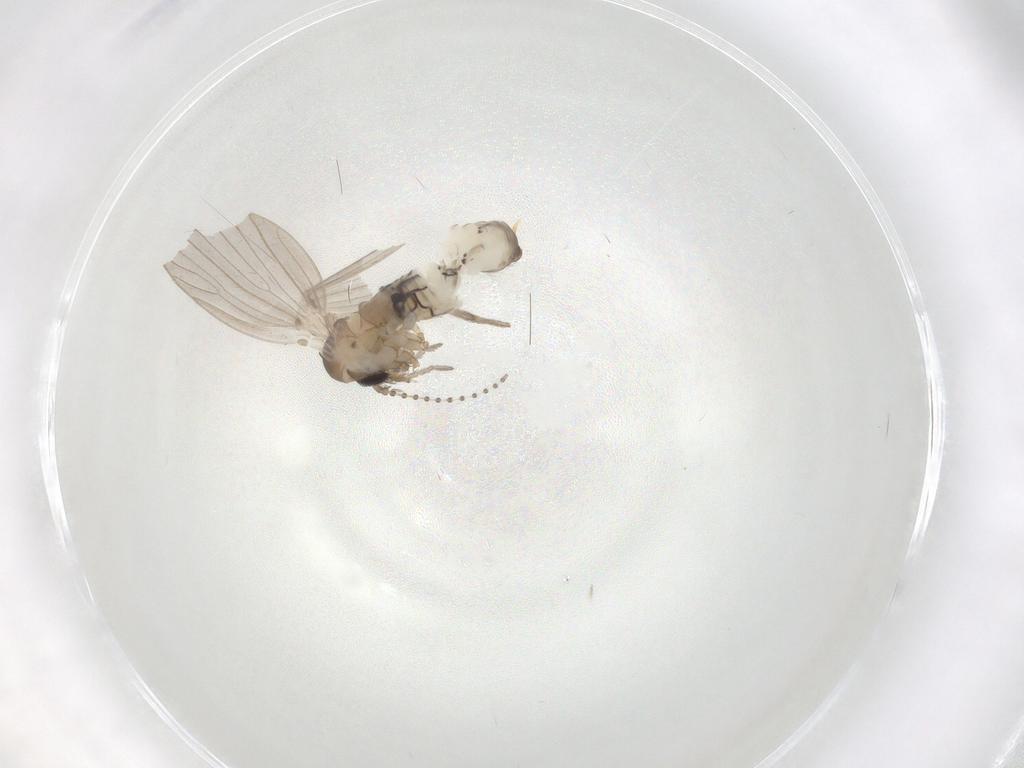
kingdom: Animalia
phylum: Arthropoda
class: Insecta
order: Diptera
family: Psychodidae
